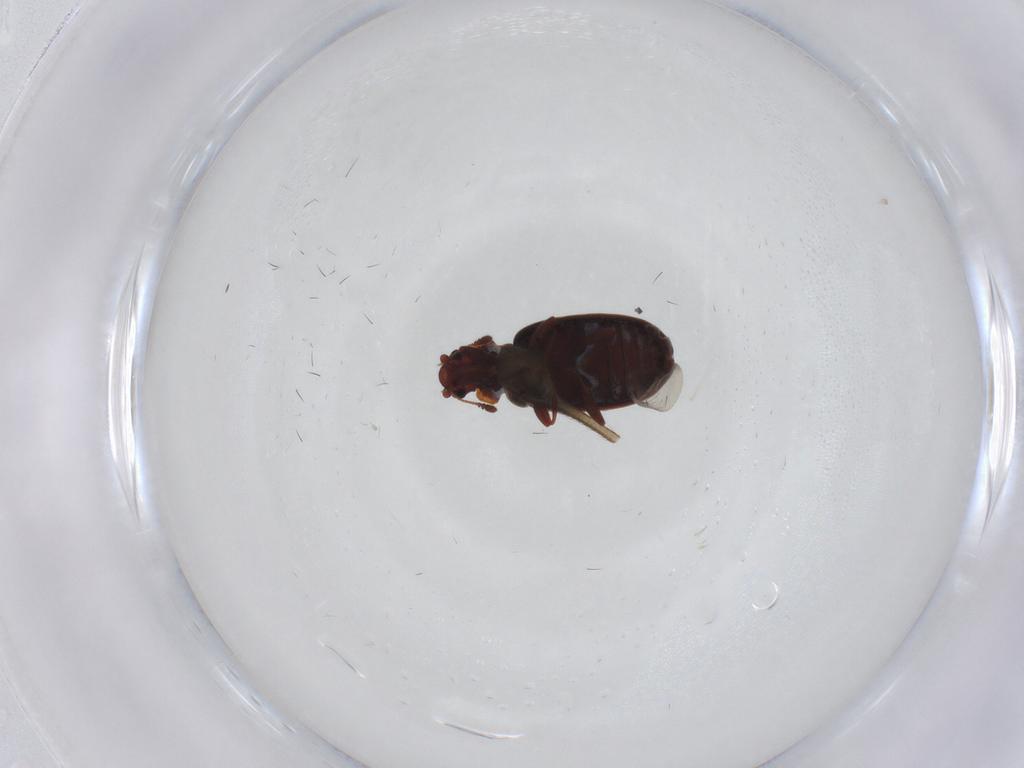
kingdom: Animalia
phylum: Arthropoda
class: Insecta
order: Coleoptera
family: Latridiidae
